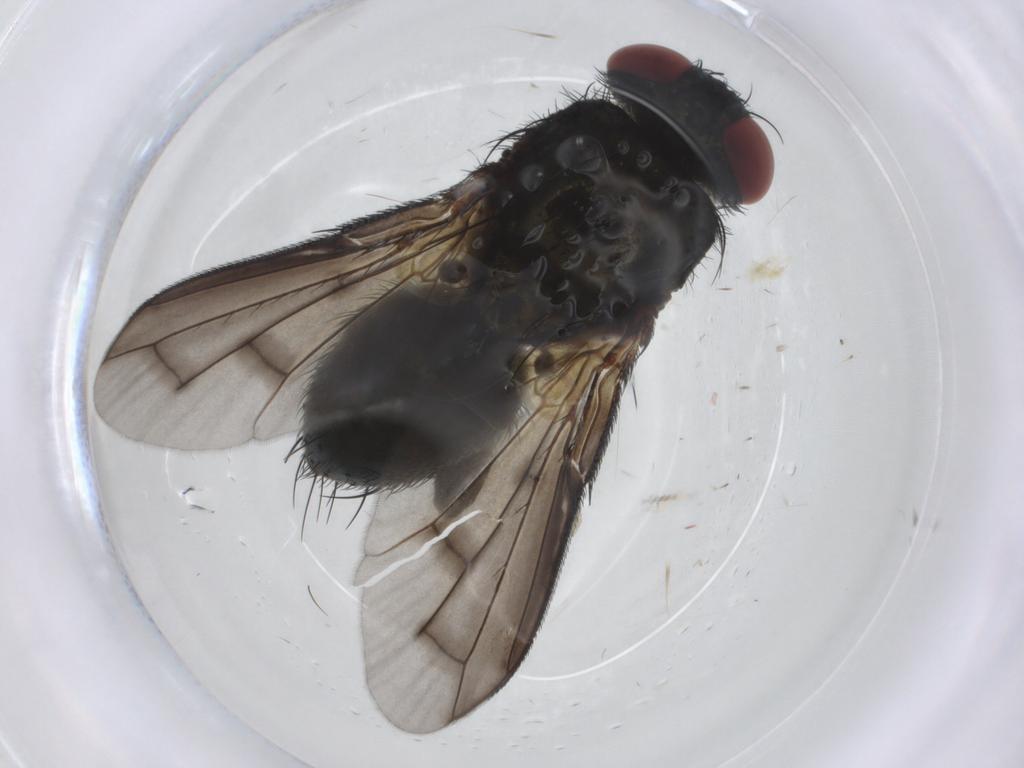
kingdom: Animalia
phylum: Arthropoda
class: Insecta
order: Diptera
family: Tachinidae
